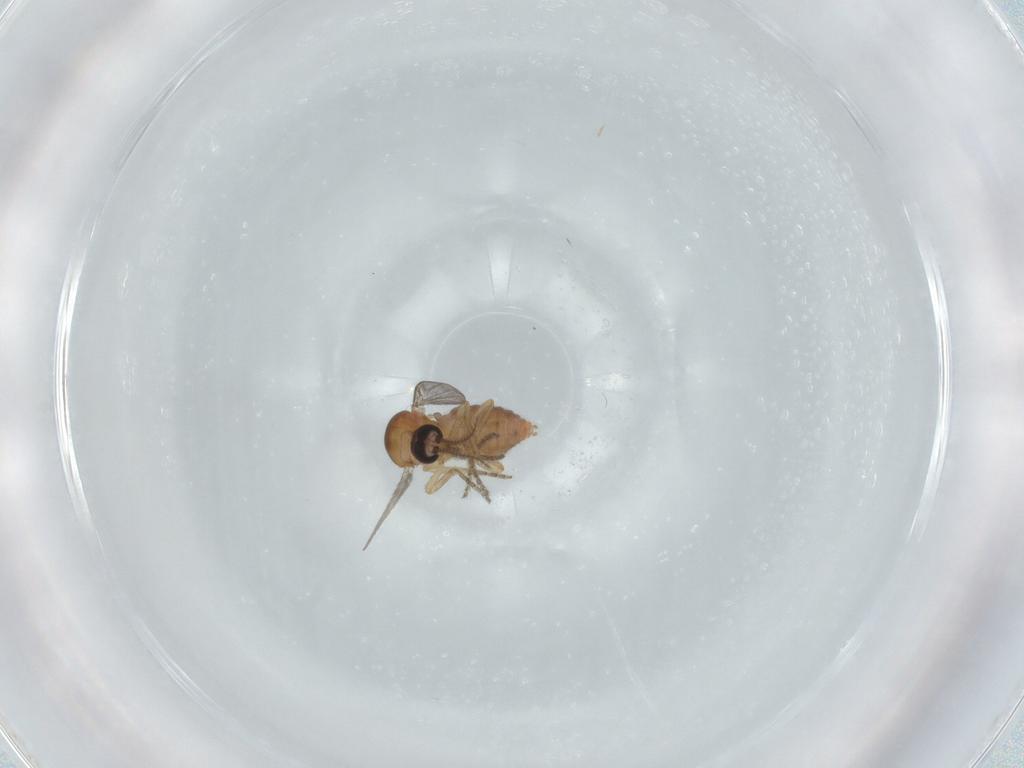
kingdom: Animalia
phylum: Arthropoda
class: Insecta
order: Diptera
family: Ceratopogonidae
